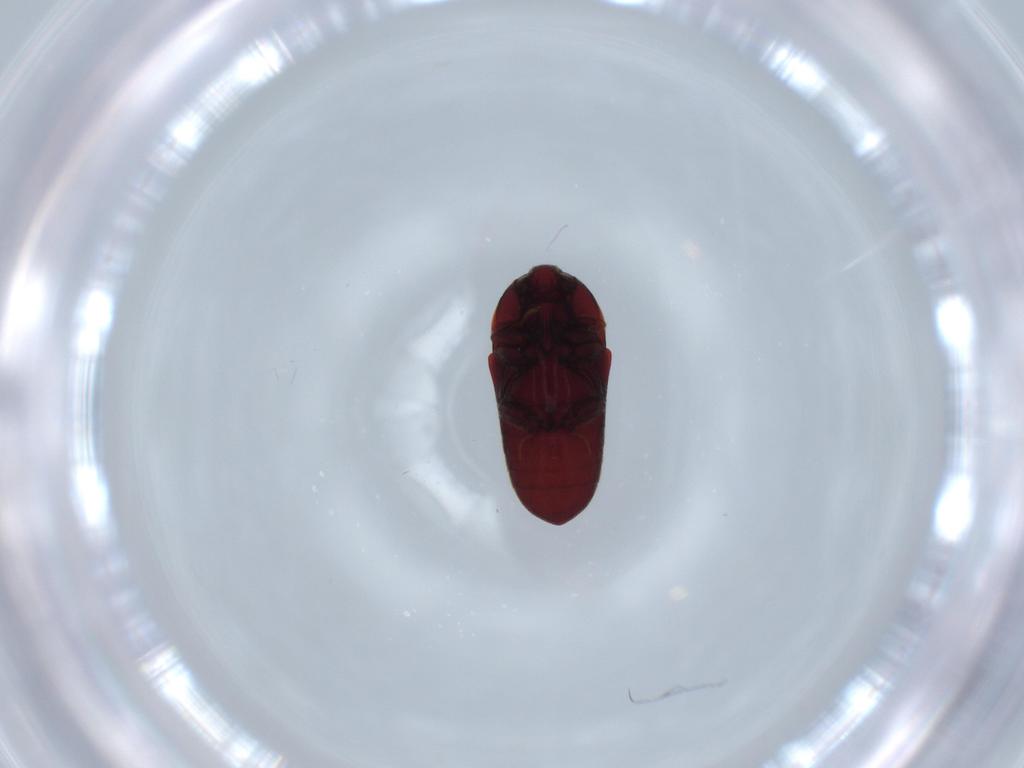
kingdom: Animalia
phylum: Arthropoda
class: Insecta
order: Coleoptera
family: Throscidae
